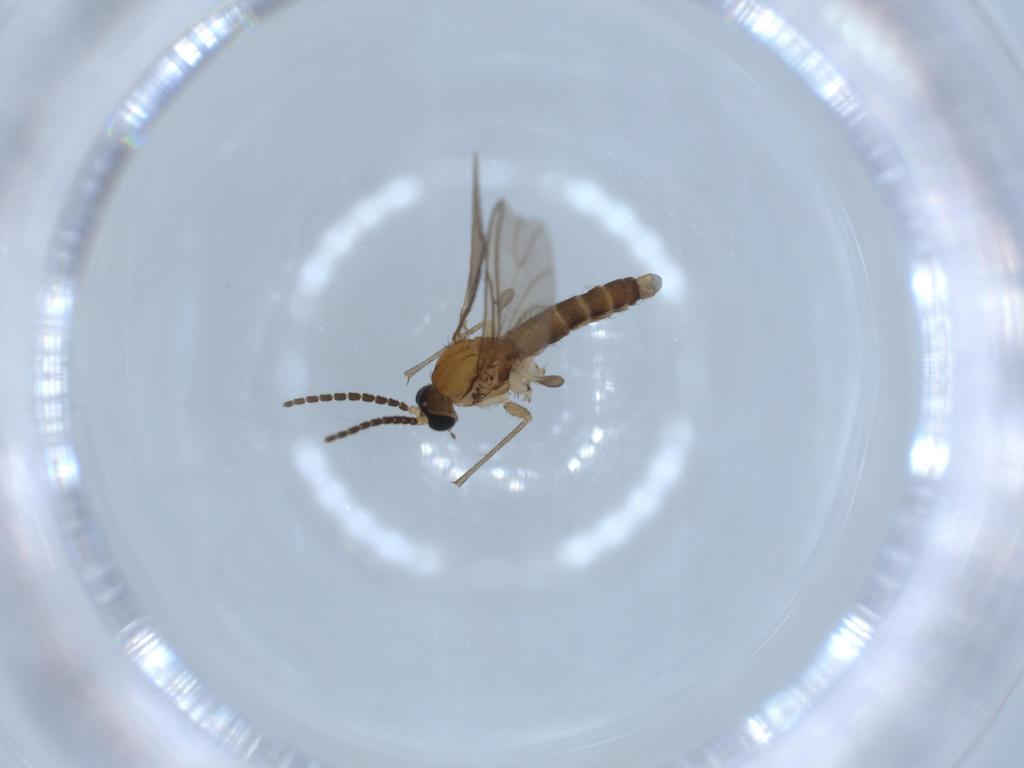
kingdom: Animalia
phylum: Arthropoda
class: Insecta
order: Diptera
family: Sciaridae
